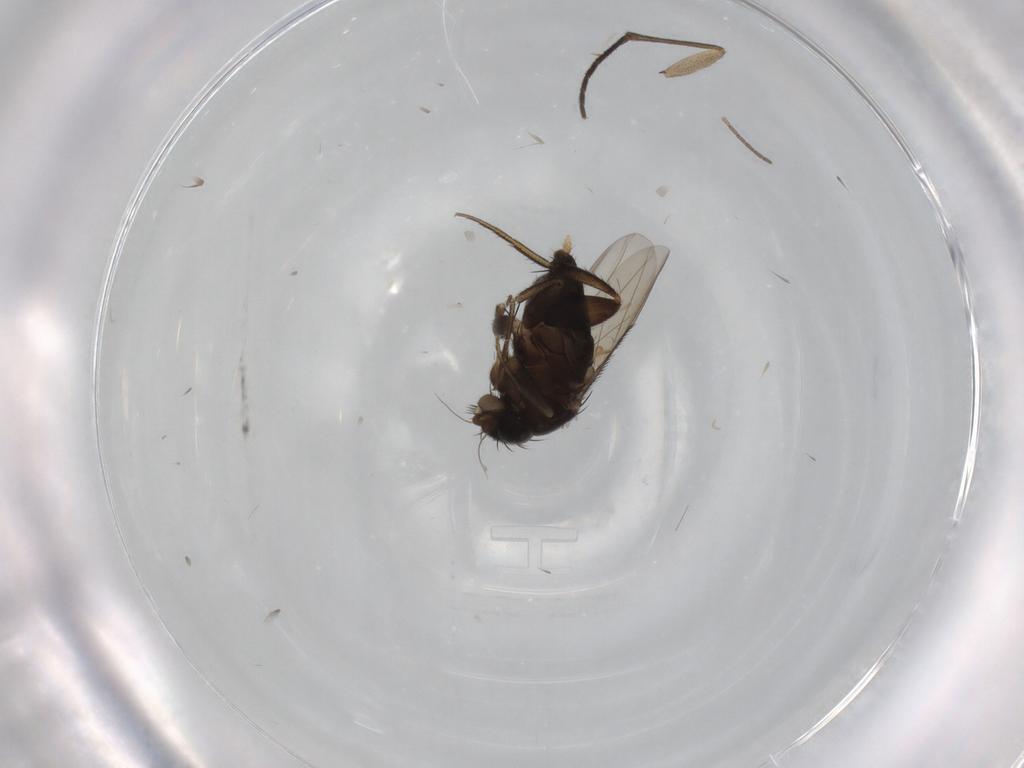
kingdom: Animalia
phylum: Arthropoda
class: Insecta
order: Diptera
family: Phoridae
